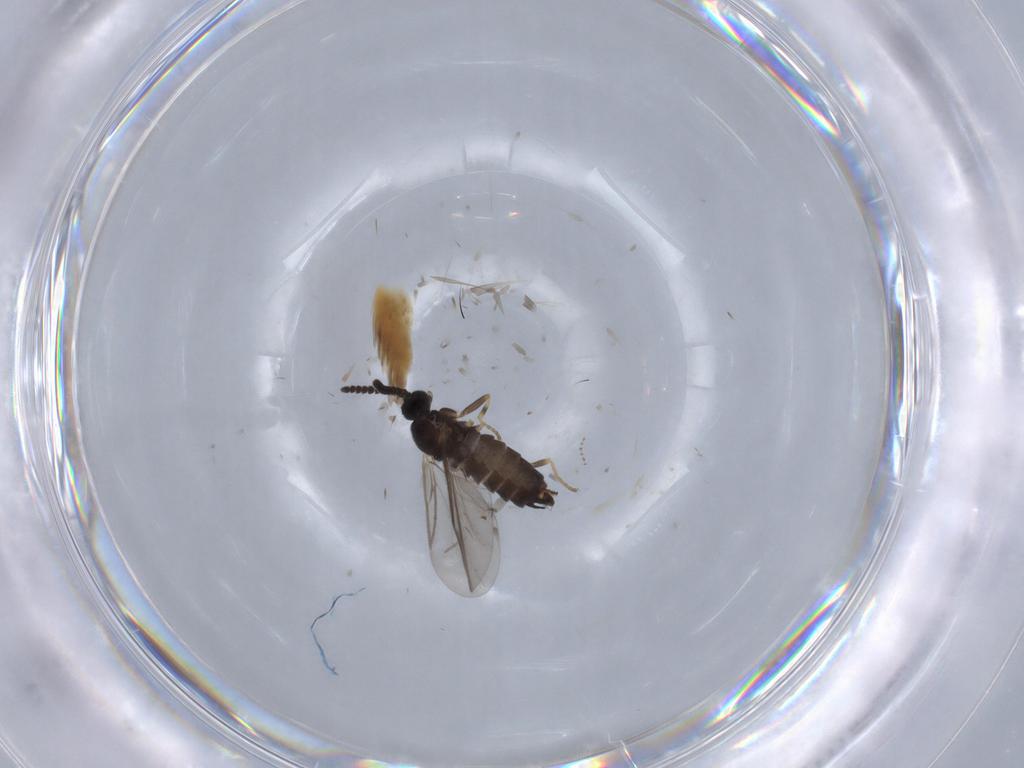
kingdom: Animalia
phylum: Arthropoda
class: Insecta
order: Diptera
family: Scatopsidae
